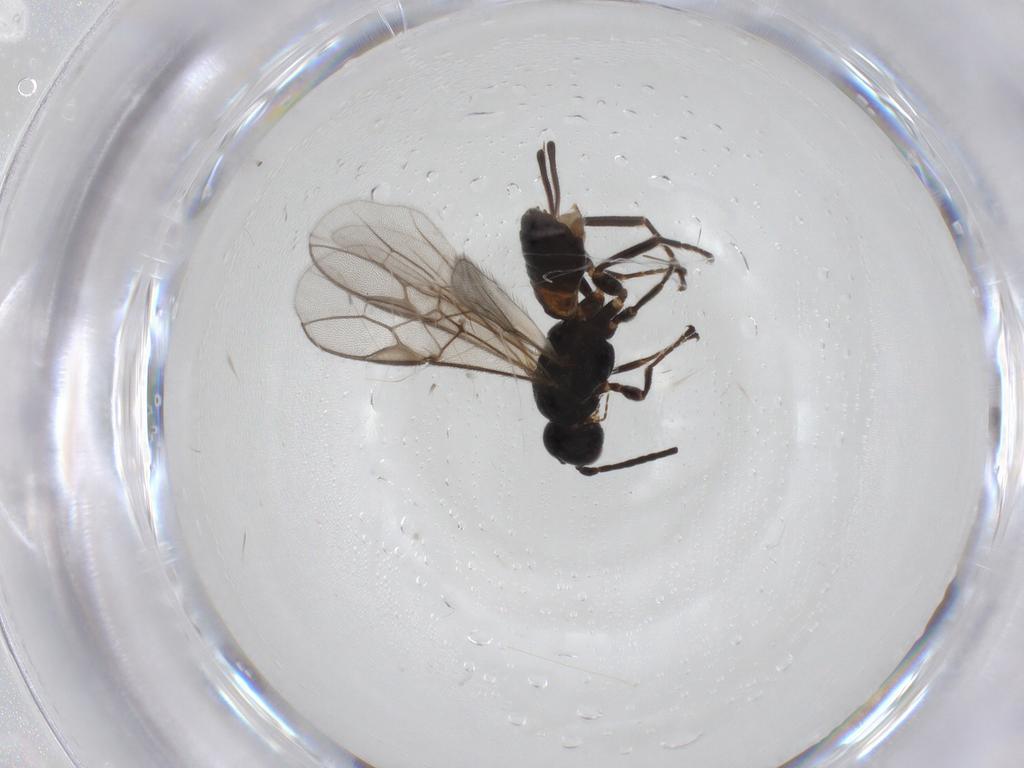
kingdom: Animalia
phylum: Arthropoda
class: Insecta
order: Hymenoptera
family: Braconidae
